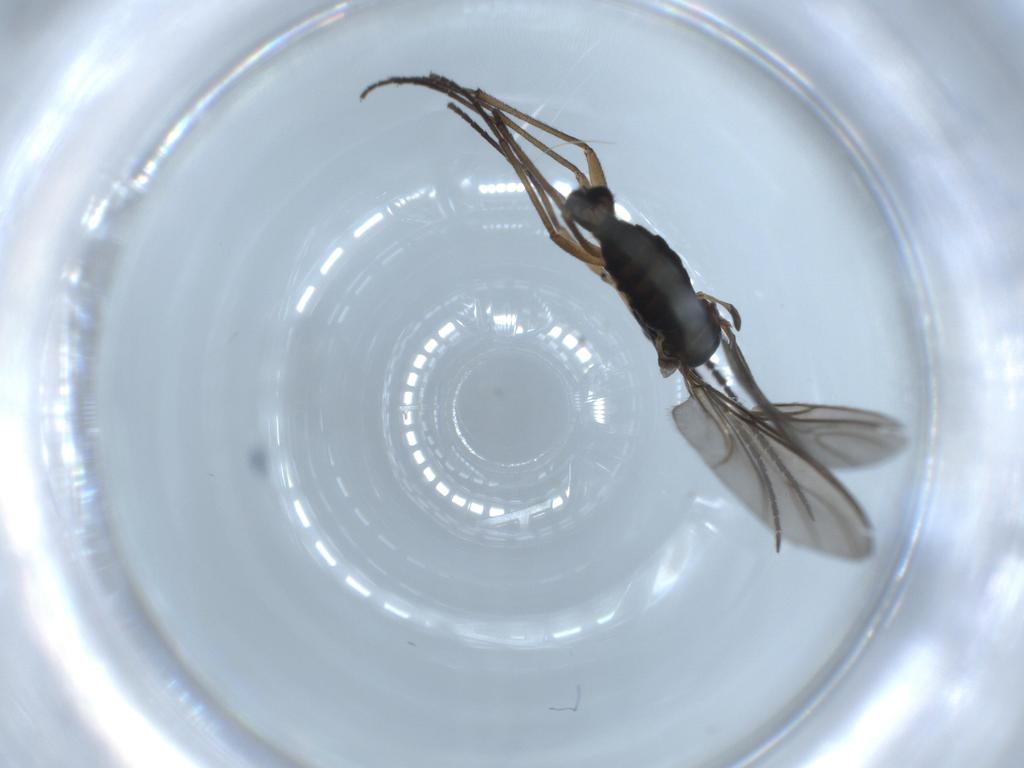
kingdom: Animalia
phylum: Arthropoda
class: Insecta
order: Diptera
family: Sciaridae
